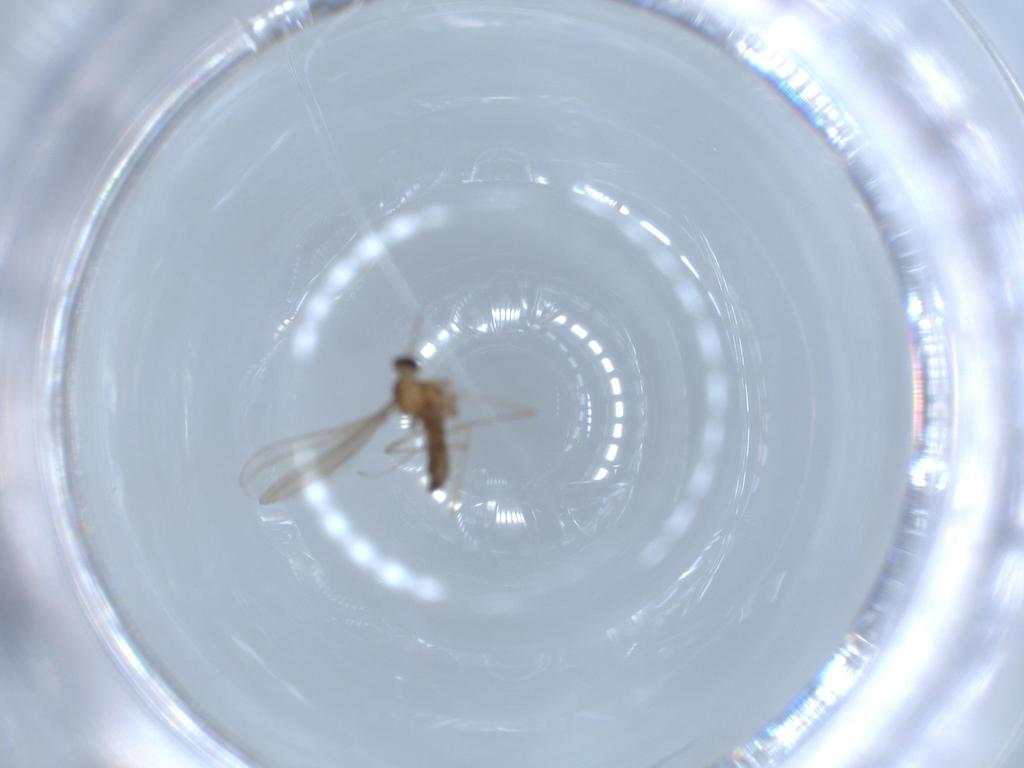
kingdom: Animalia
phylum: Arthropoda
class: Insecta
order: Diptera
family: Cecidomyiidae
